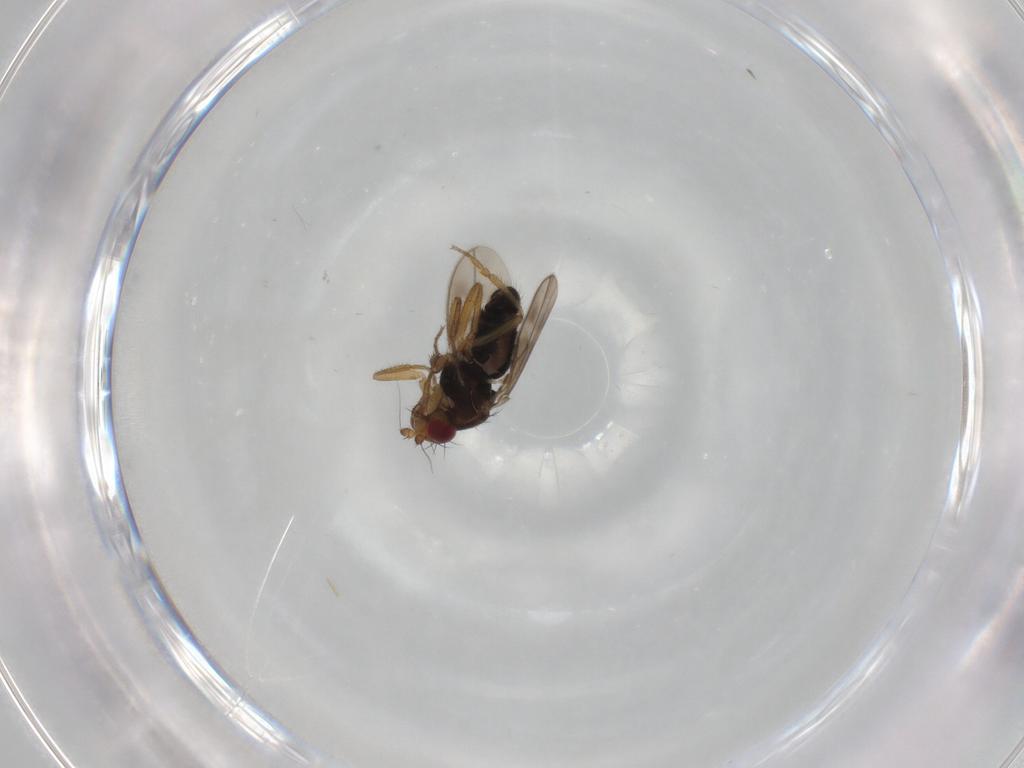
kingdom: Animalia
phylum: Arthropoda
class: Insecta
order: Diptera
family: Sphaeroceridae
